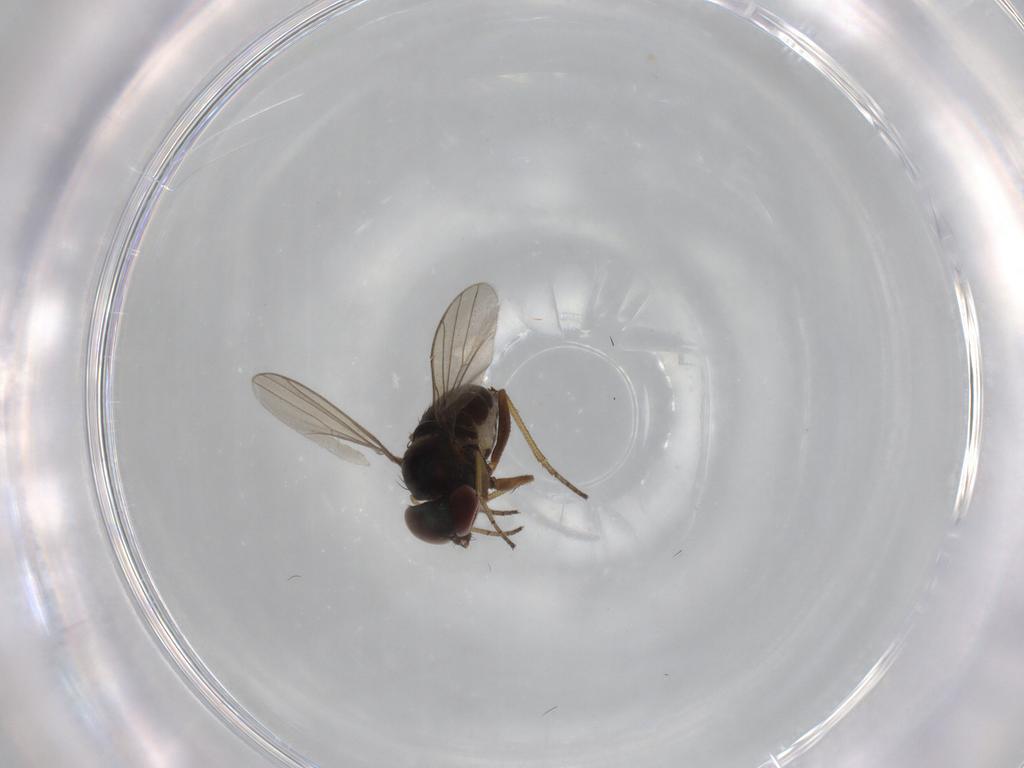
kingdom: Animalia
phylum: Arthropoda
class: Insecta
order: Diptera
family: Dolichopodidae
